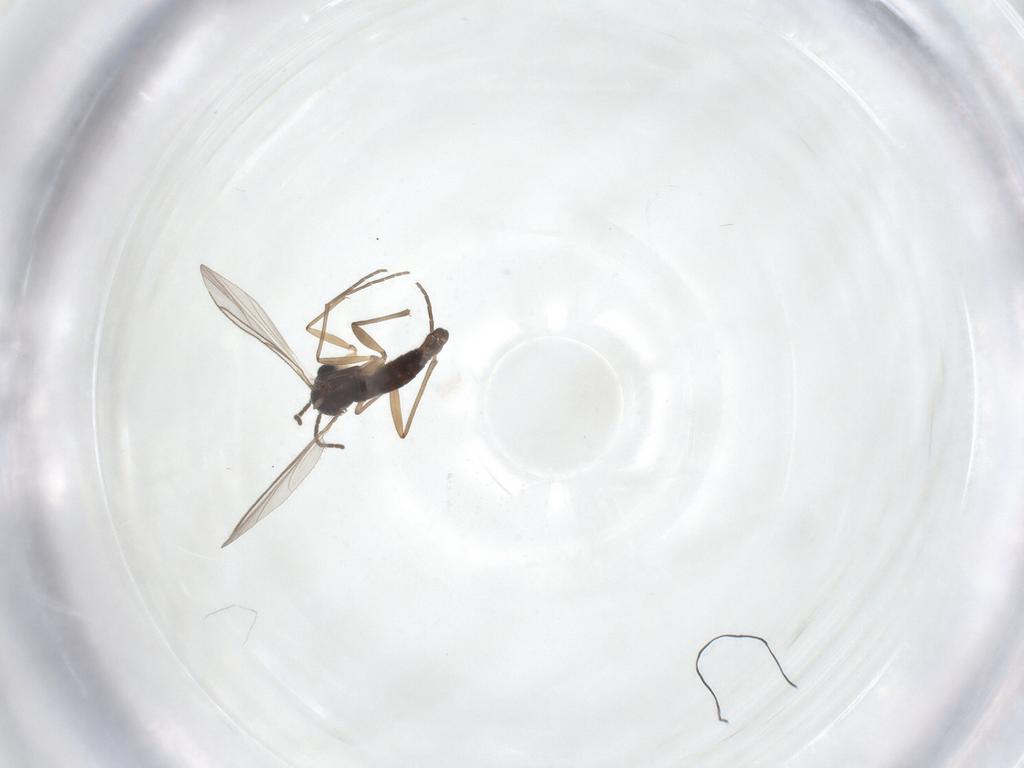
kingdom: Animalia
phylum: Arthropoda
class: Insecta
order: Diptera
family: Sciaridae
